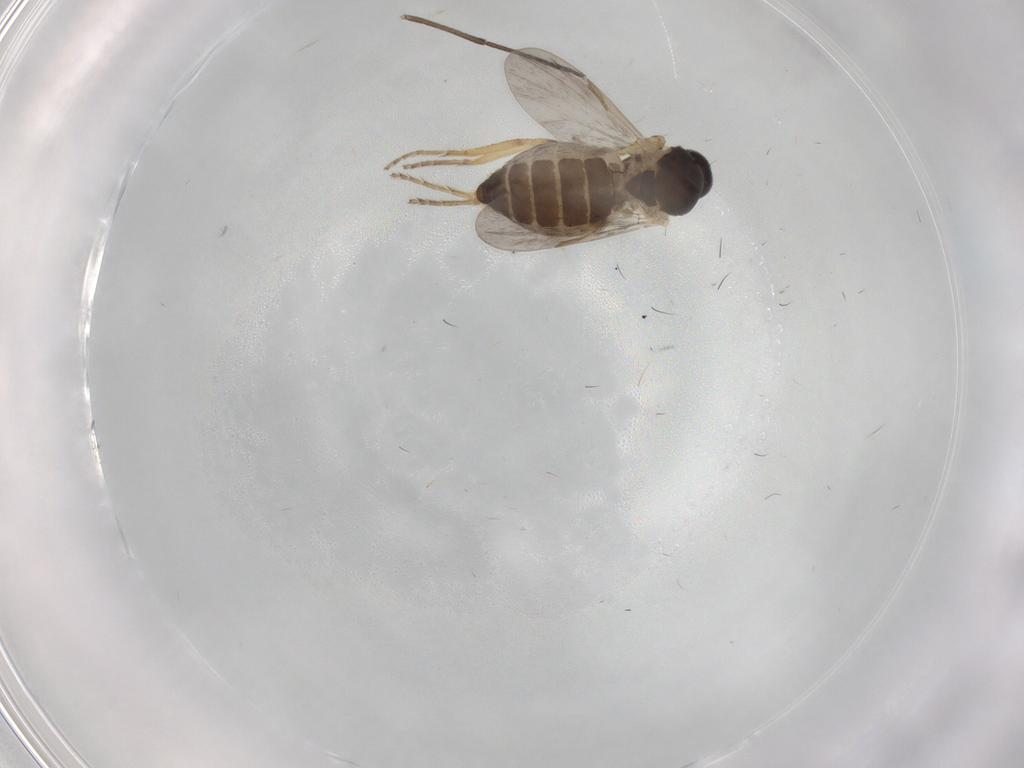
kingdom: Animalia
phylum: Arthropoda
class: Insecta
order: Diptera
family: Ceratopogonidae
